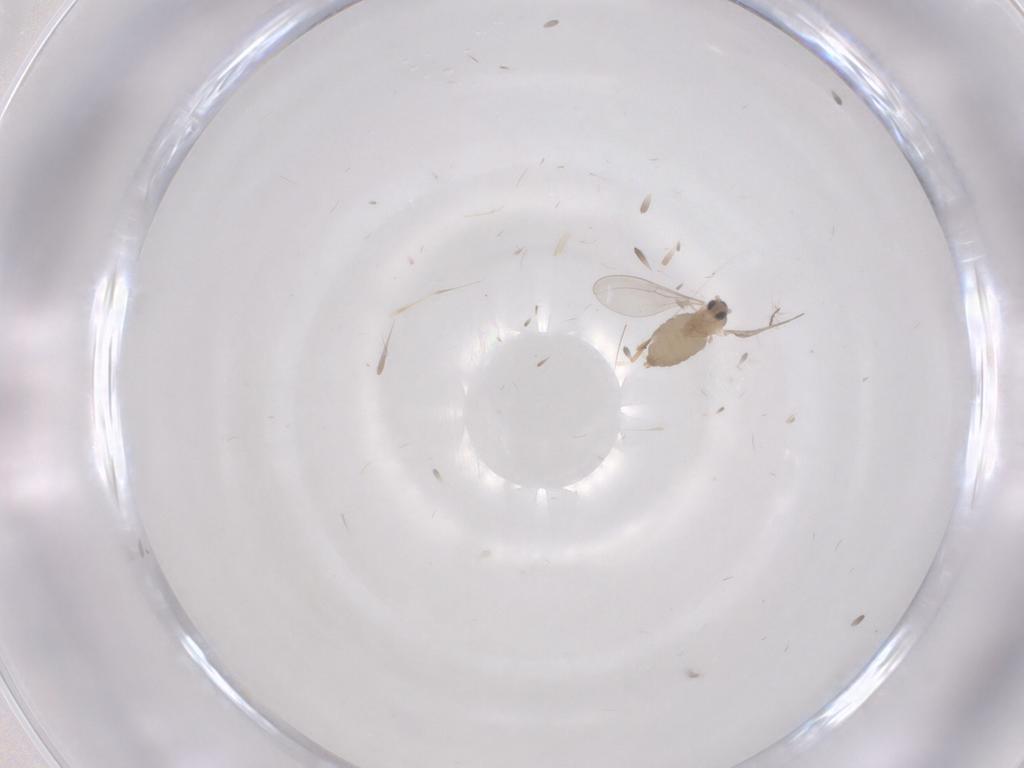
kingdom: Animalia
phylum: Arthropoda
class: Insecta
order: Diptera
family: Cecidomyiidae
